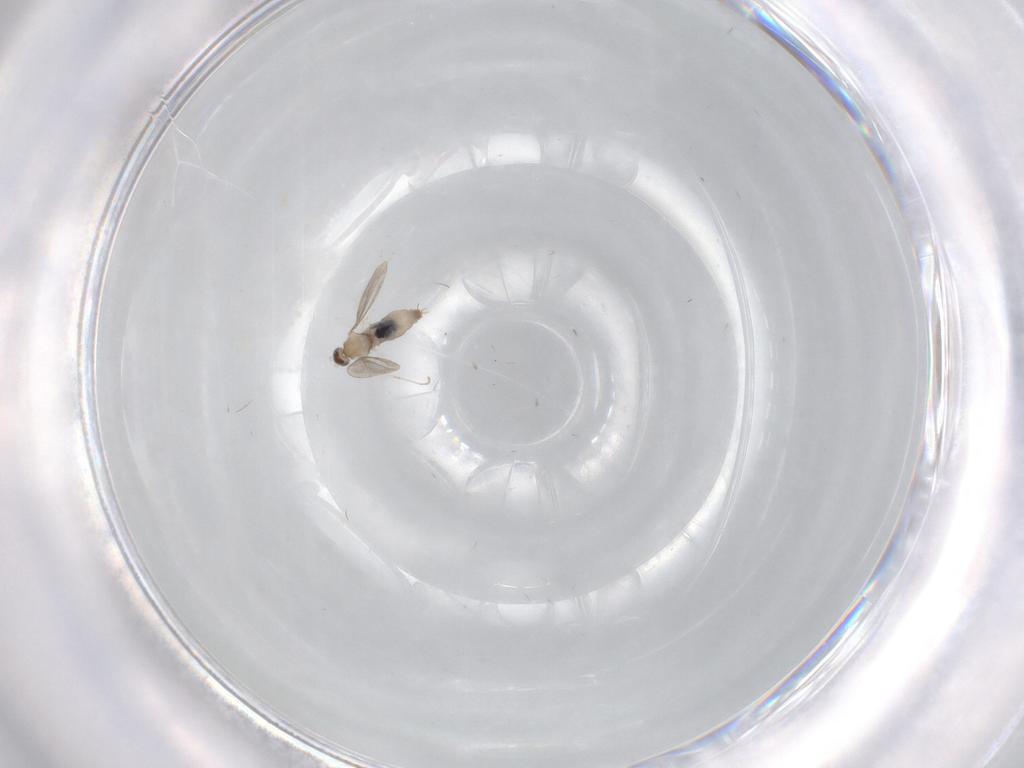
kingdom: Animalia
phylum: Arthropoda
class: Insecta
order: Diptera
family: Cecidomyiidae
